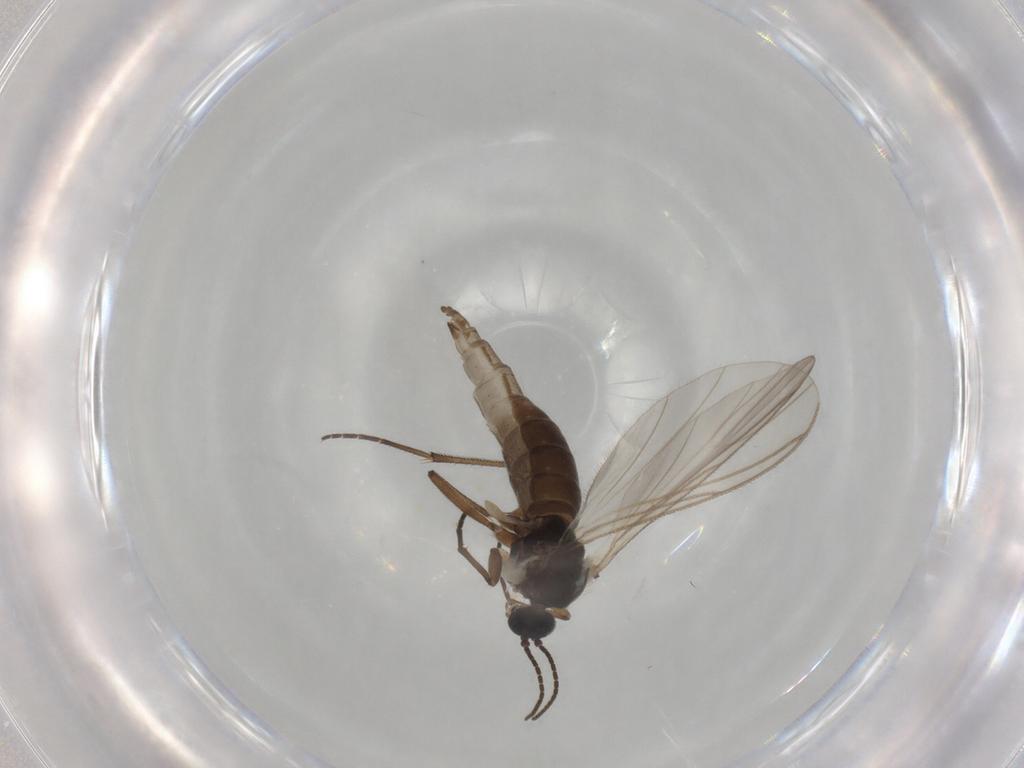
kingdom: Animalia
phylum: Arthropoda
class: Insecta
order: Diptera
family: Sciaridae
